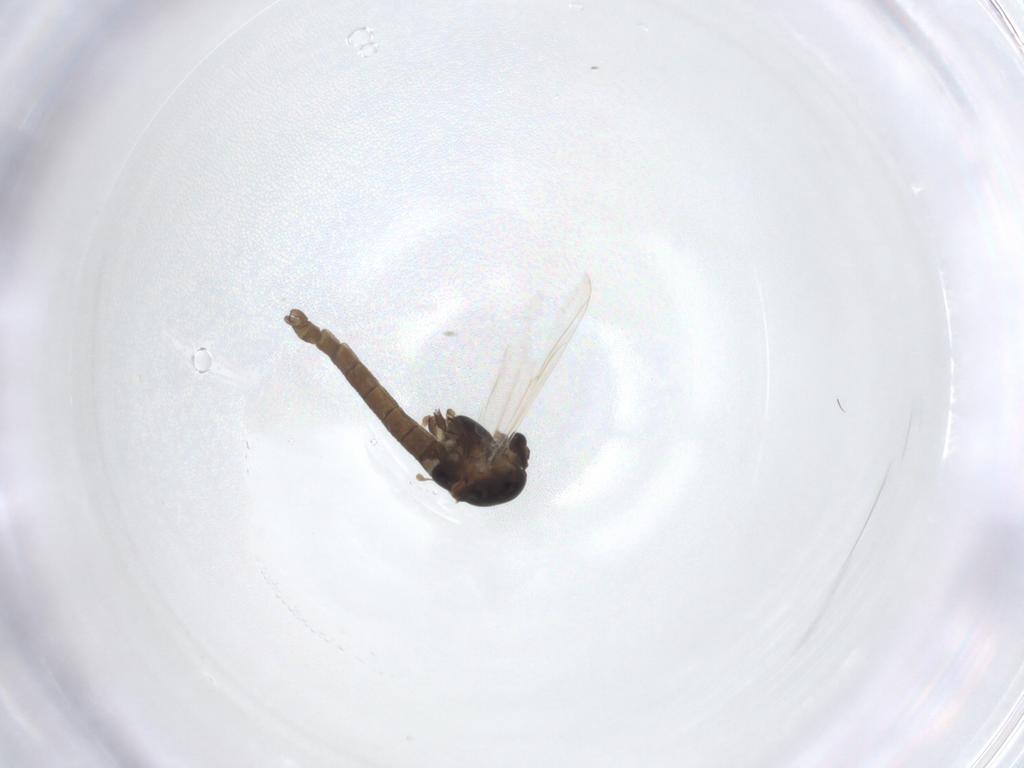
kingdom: Animalia
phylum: Arthropoda
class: Insecta
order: Diptera
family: Chironomidae
